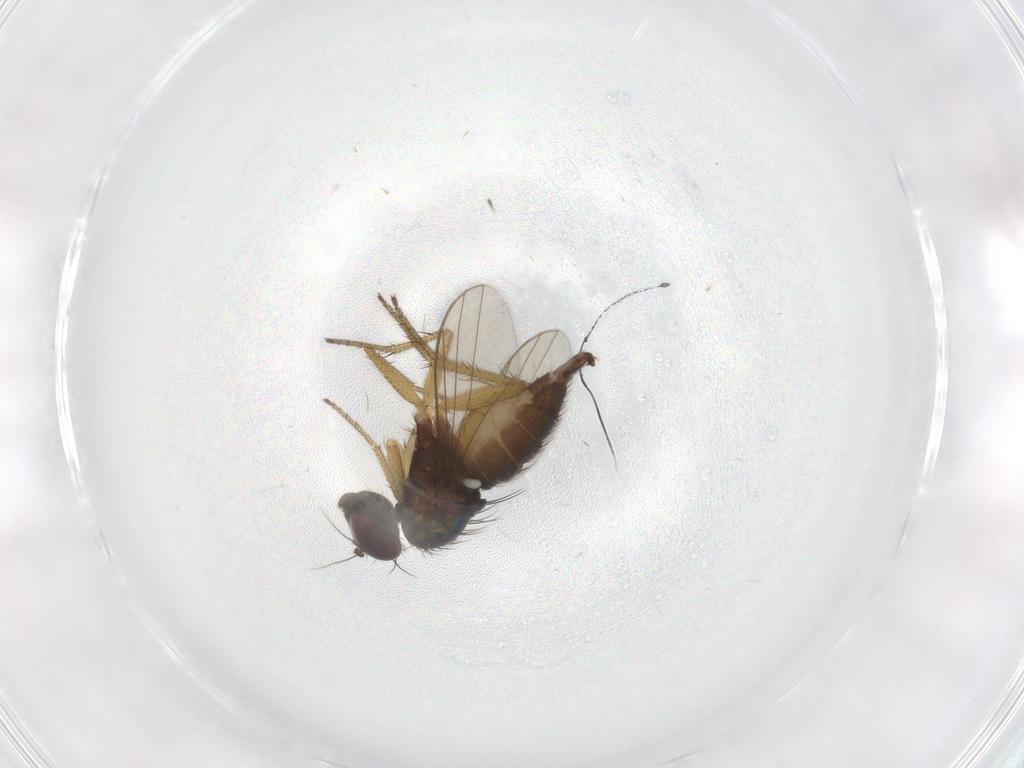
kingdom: Animalia
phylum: Arthropoda
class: Insecta
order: Diptera
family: Dolichopodidae
